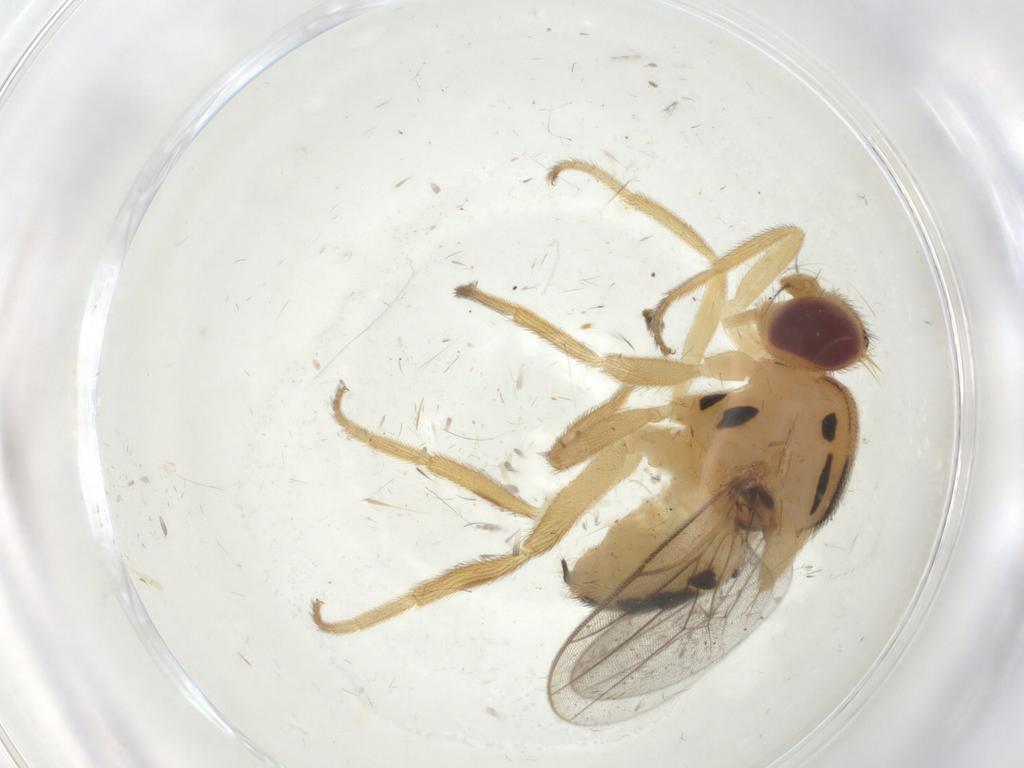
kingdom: Animalia
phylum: Arthropoda
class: Insecta
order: Diptera
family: Chloropidae
